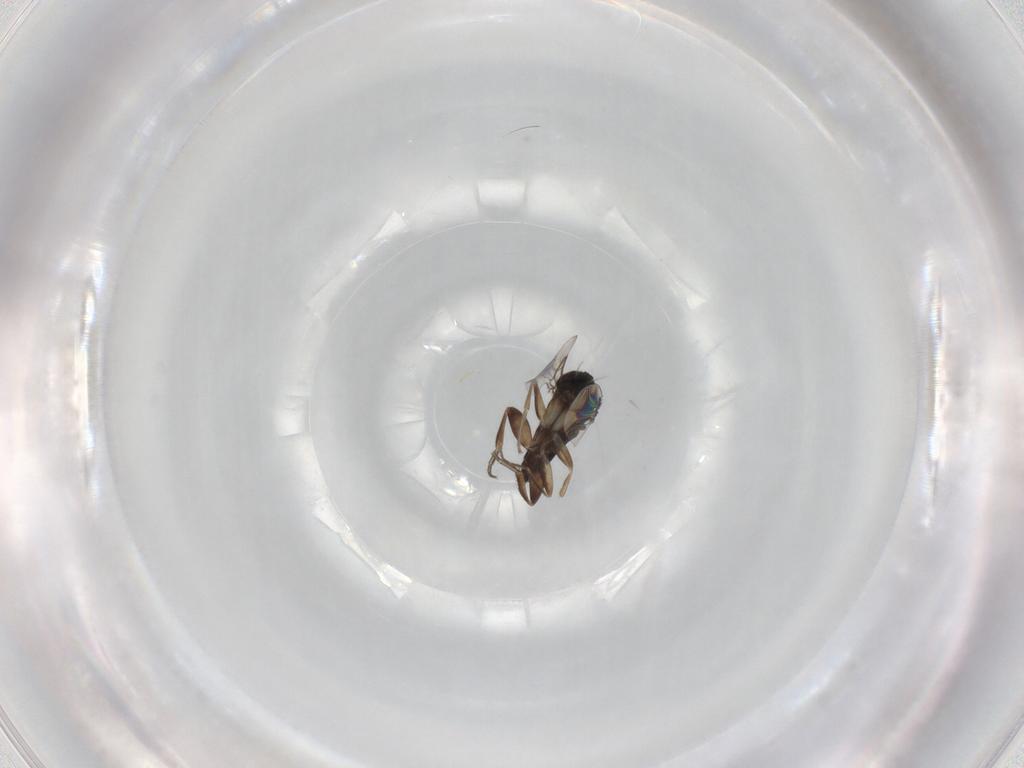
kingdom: Animalia
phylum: Arthropoda
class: Insecta
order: Diptera
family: Phoridae
